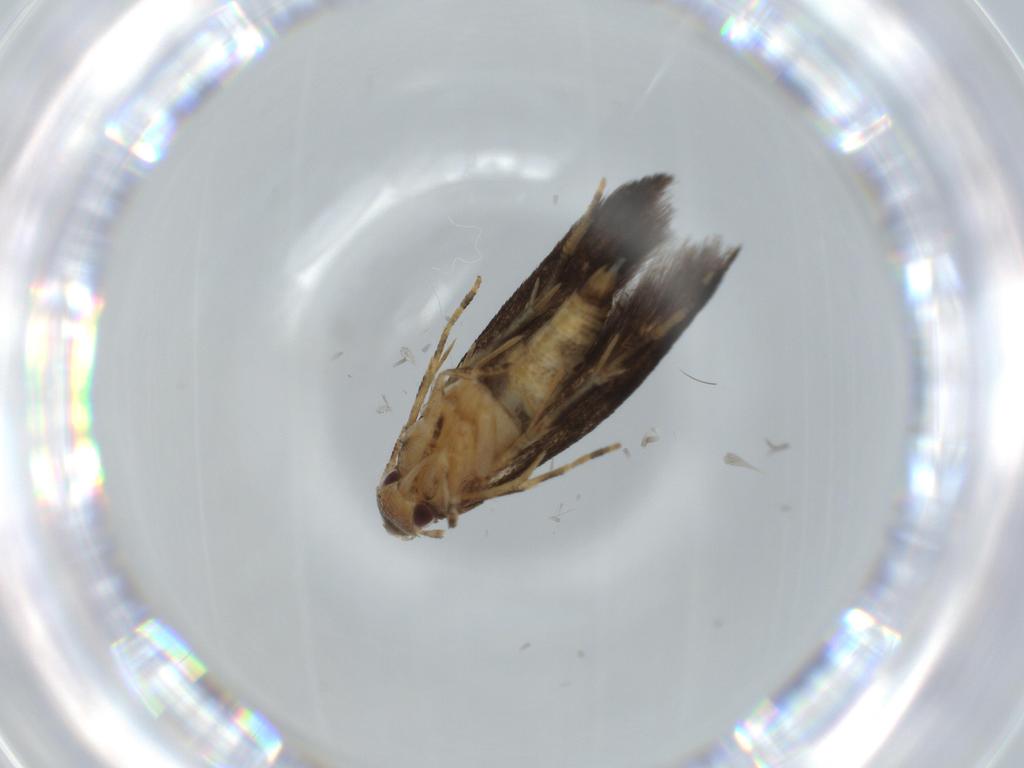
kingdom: Animalia
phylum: Arthropoda
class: Insecta
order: Lepidoptera
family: Momphidae
